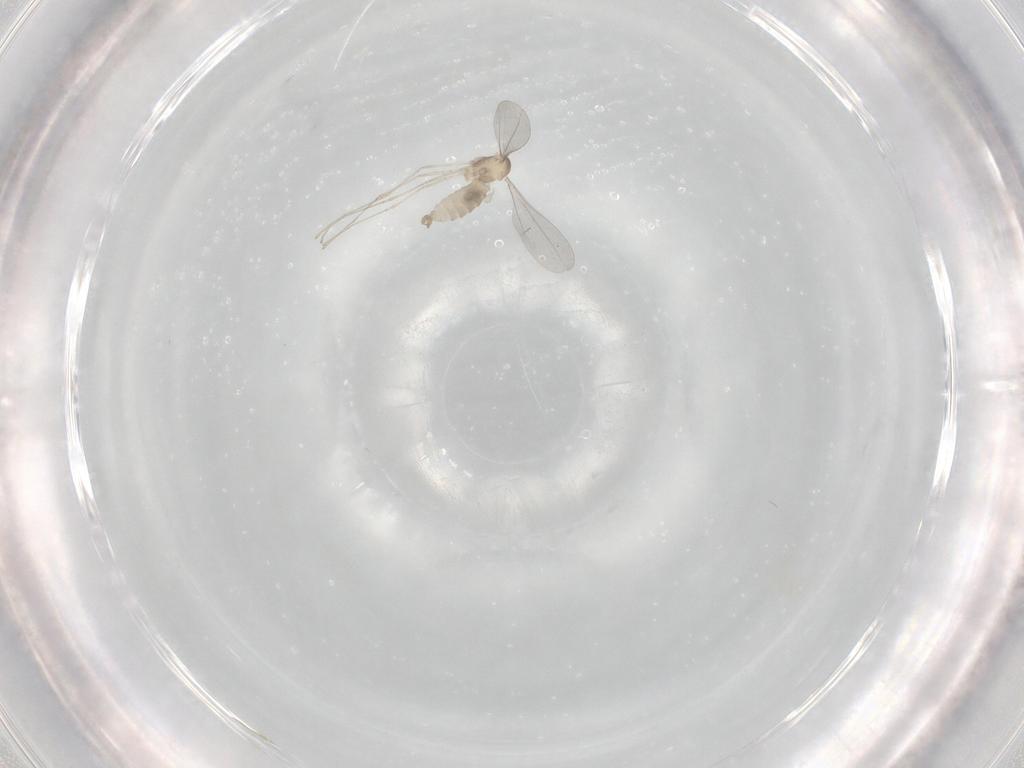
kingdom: Animalia
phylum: Arthropoda
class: Insecta
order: Diptera
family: Cecidomyiidae
